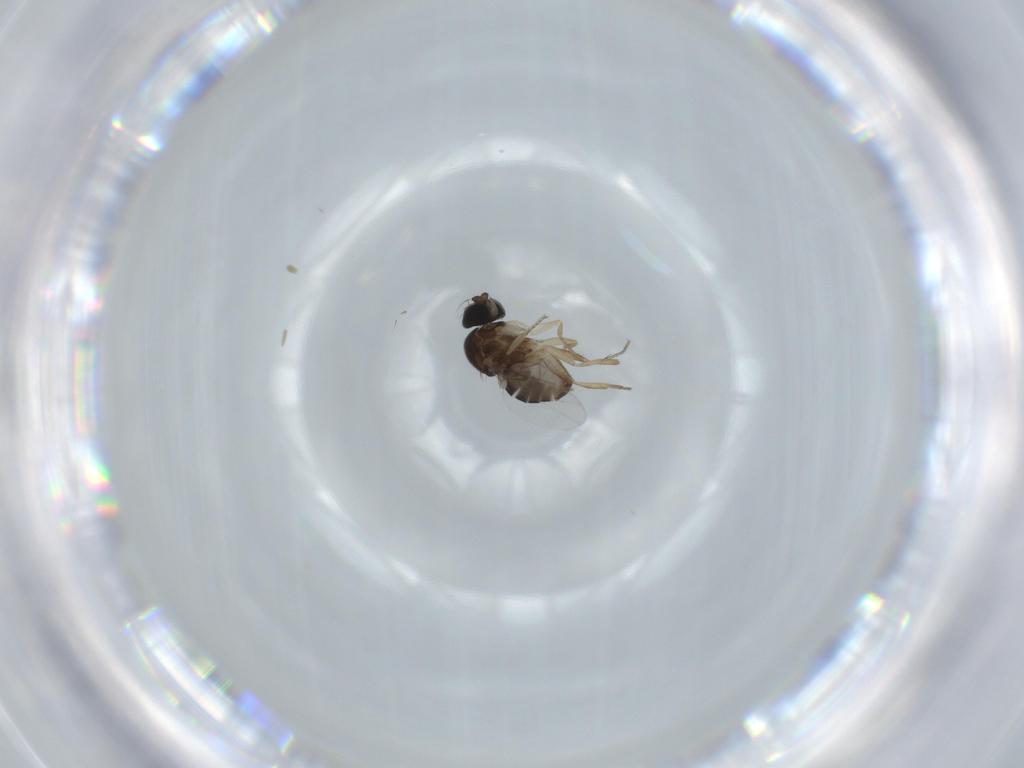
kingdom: Animalia
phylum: Arthropoda
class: Insecta
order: Diptera
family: Phoridae
